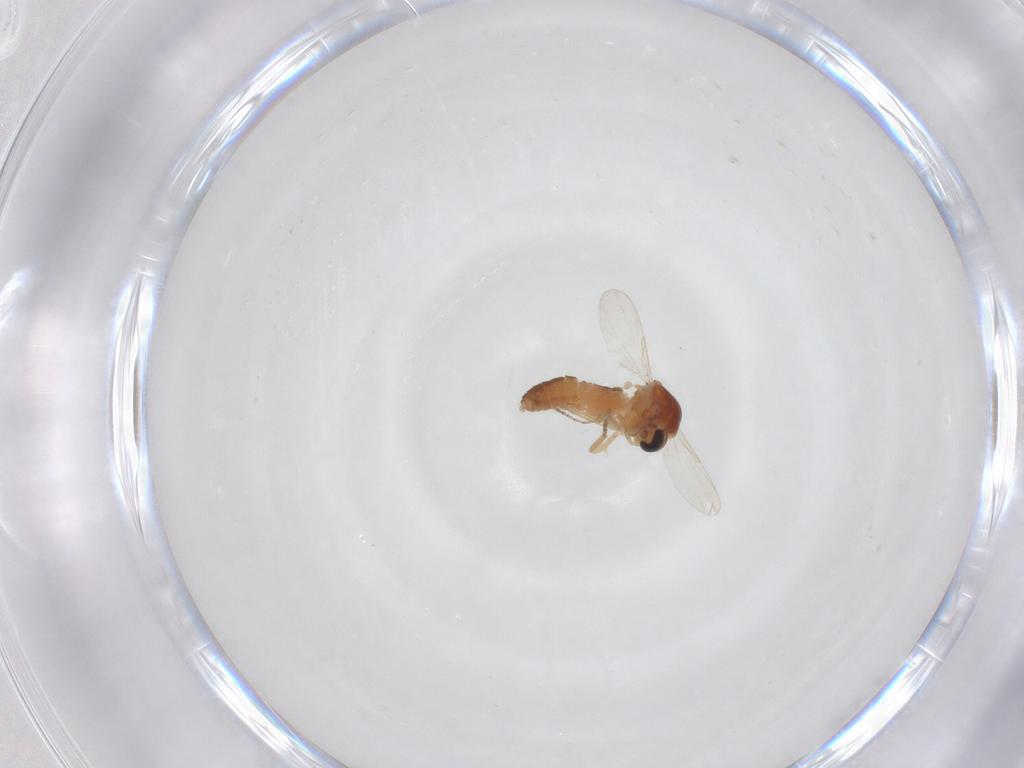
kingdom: Animalia
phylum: Arthropoda
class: Insecta
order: Diptera
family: Ceratopogonidae
